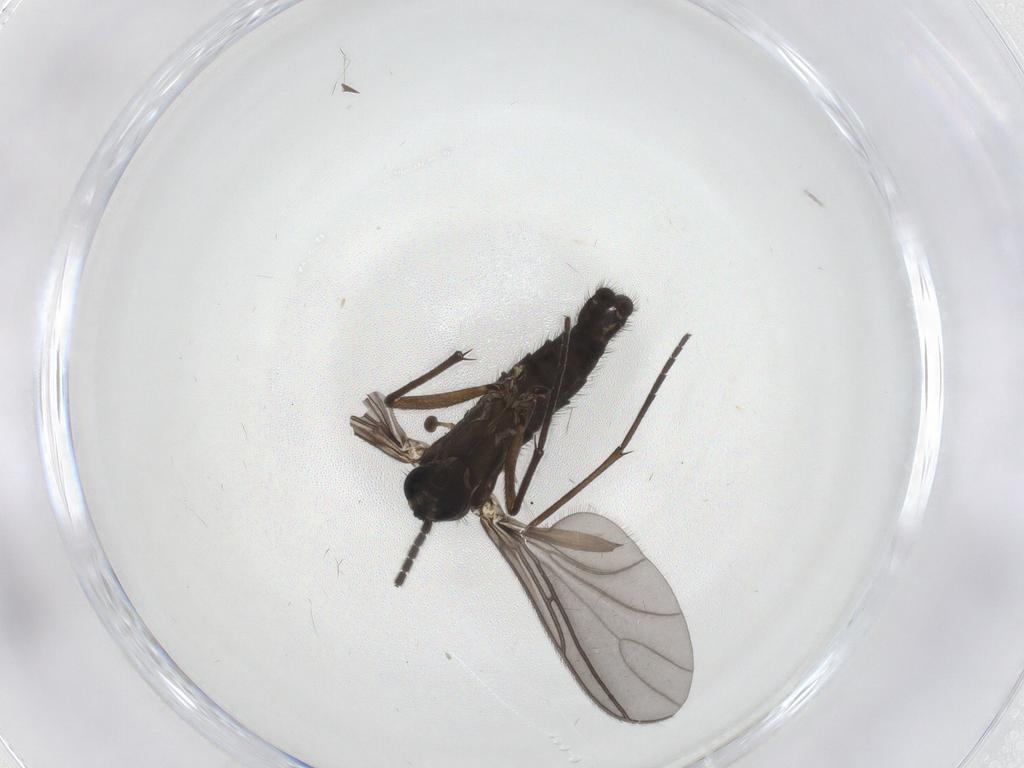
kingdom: Animalia
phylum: Arthropoda
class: Insecta
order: Diptera
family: Sciaridae
